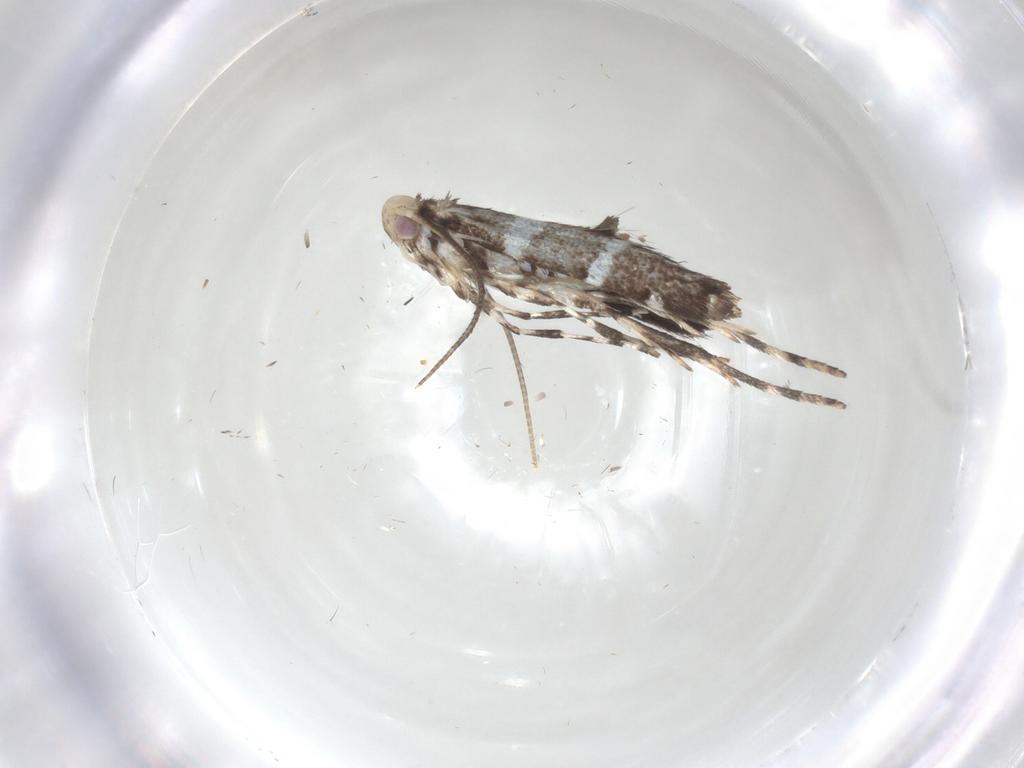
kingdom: Animalia
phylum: Arthropoda
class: Insecta
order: Lepidoptera
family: Gracillariidae
